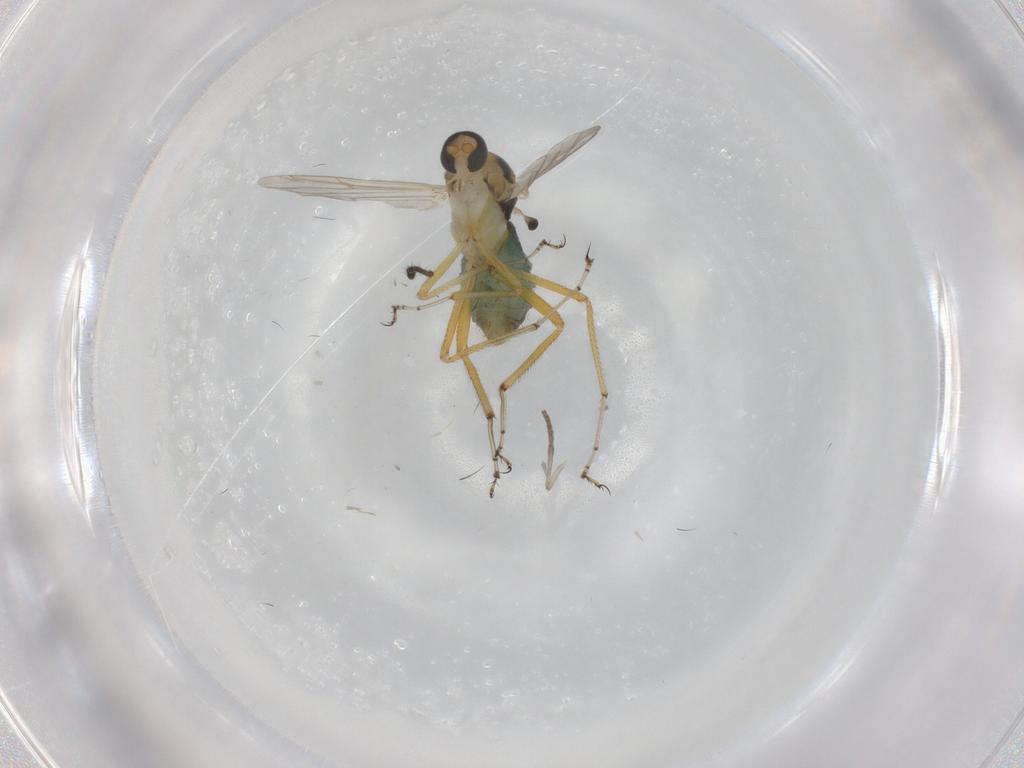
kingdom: Animalia
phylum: Arthropoda
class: Insecta
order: Diptera
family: Ceratopogonidae
